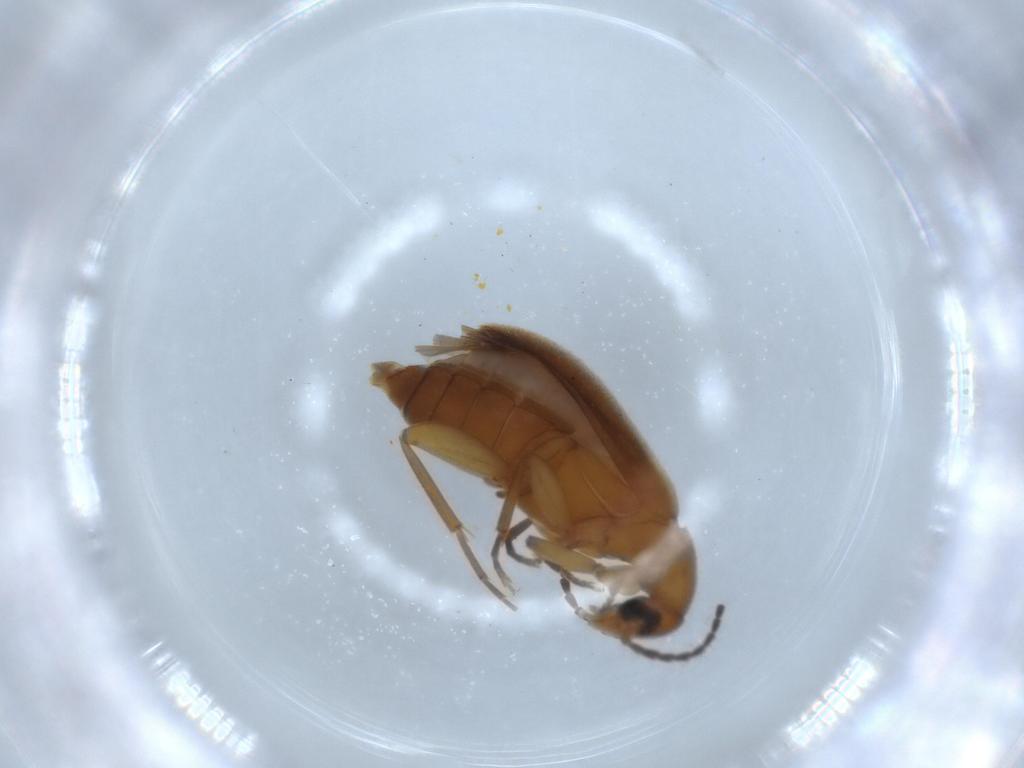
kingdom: Animalia
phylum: Arthropoda
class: Insecta
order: Coleoptera
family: Scraptiidae
